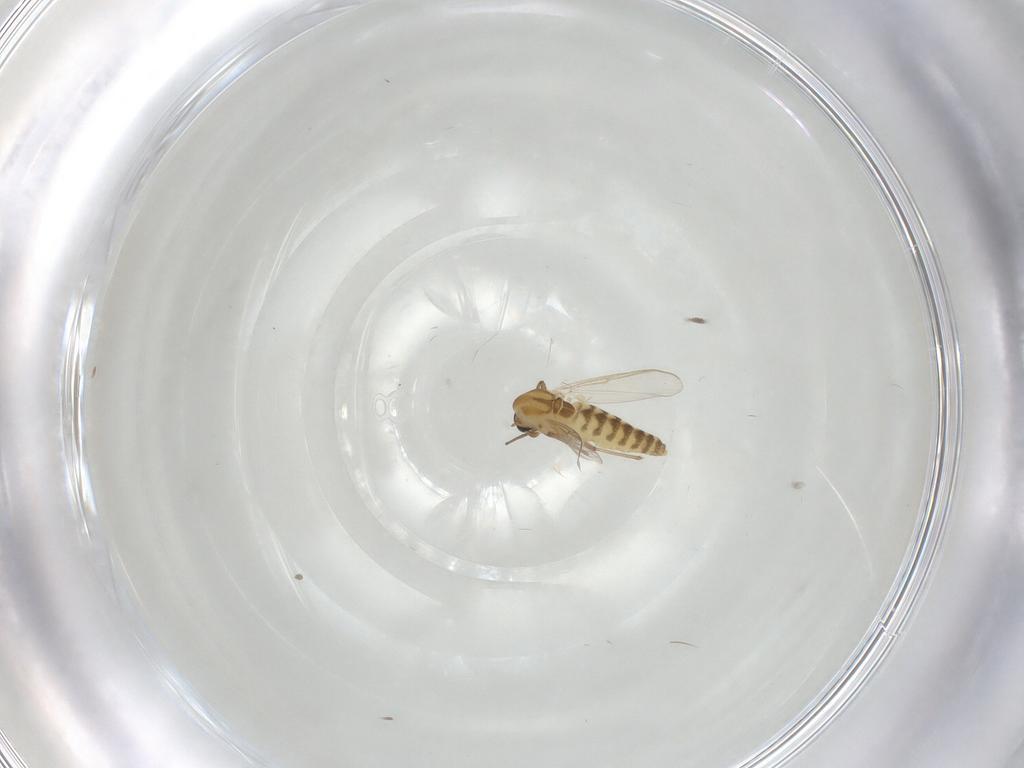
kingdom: Animalia
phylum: Arthropoda
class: Insecta
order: Diptera
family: Chironomidae
